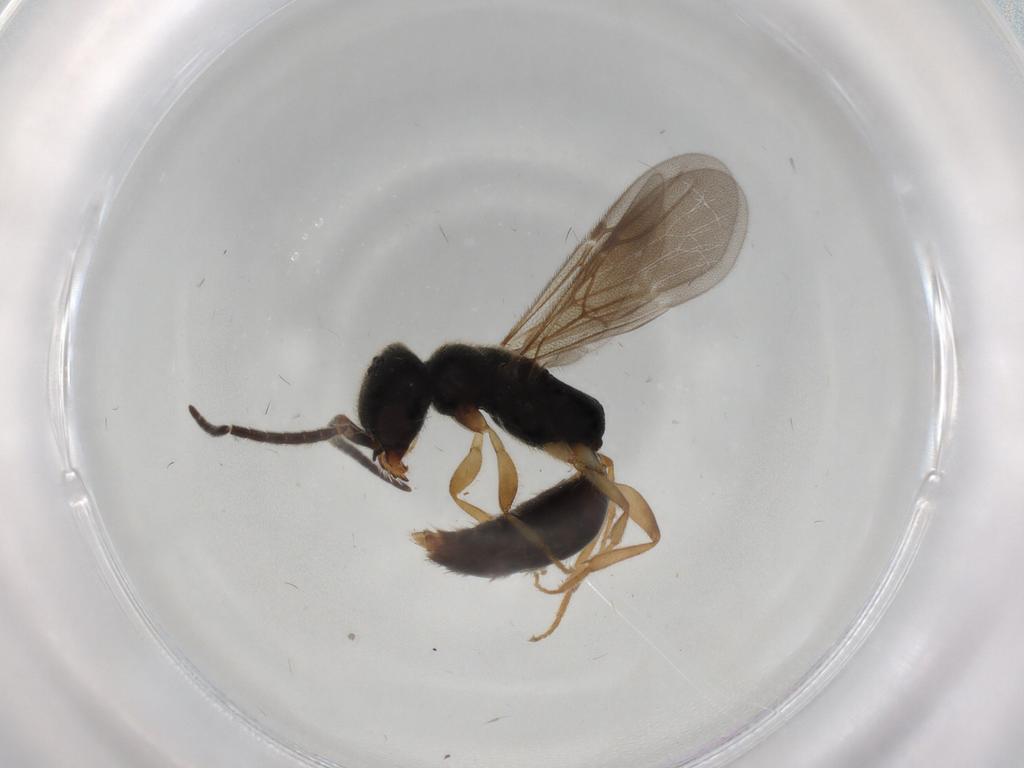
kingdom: Animalia
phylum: Arthropoda
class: Insecta
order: Hymenoptera
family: Bethylidae
